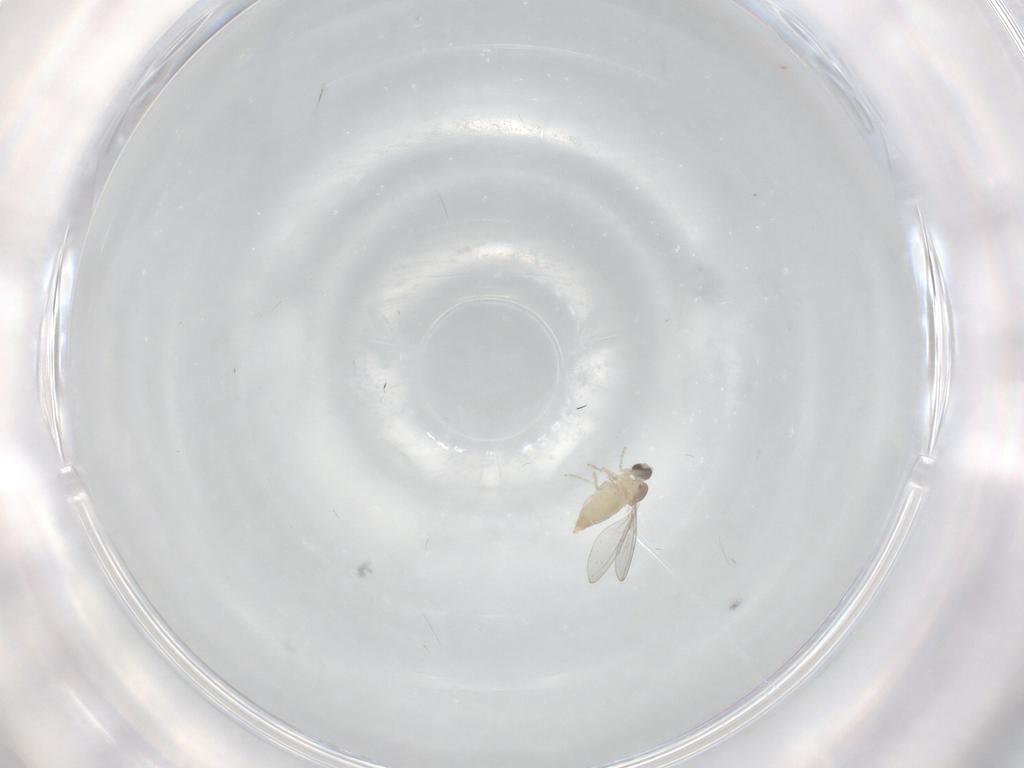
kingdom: Animalia
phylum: Arthropoda
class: Insecta
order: Diptera
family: Cecidomyiidae
